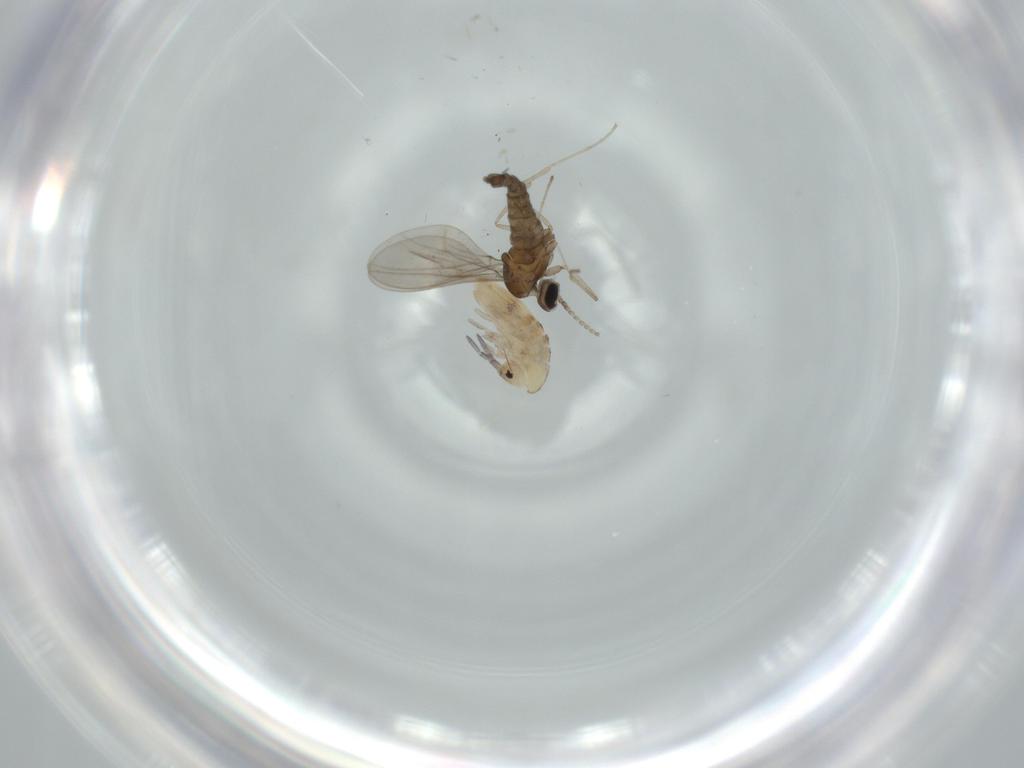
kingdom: Animalia
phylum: Arthropoda
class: Insecta
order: Diptera
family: Cecidomyiidae
